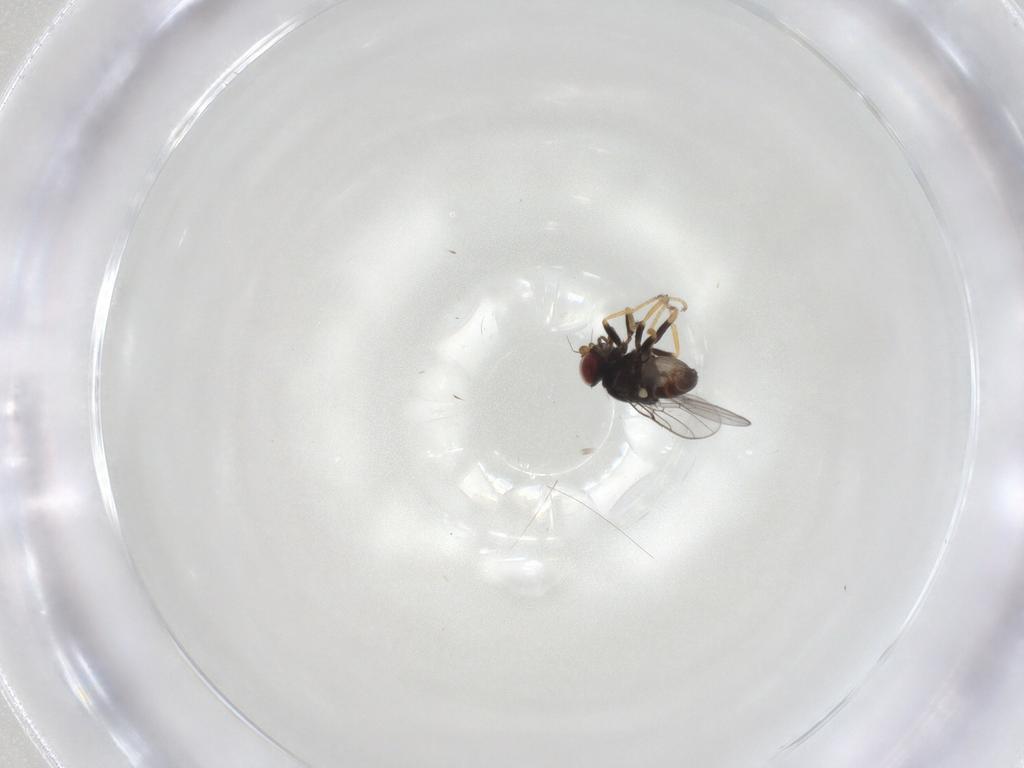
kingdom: Animalia
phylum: Arthropoda
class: Insecta
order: Diptera
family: Chloropidae
